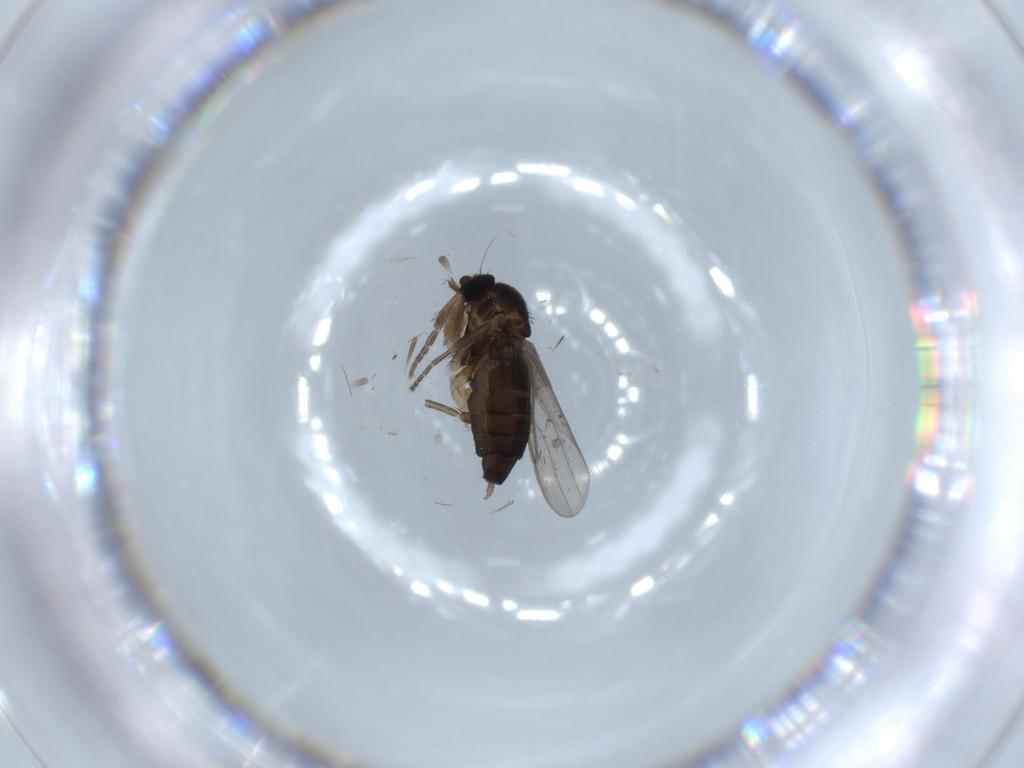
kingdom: Animalia
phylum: Arthropoda
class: Insecta
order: Diptera
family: Phoridae
